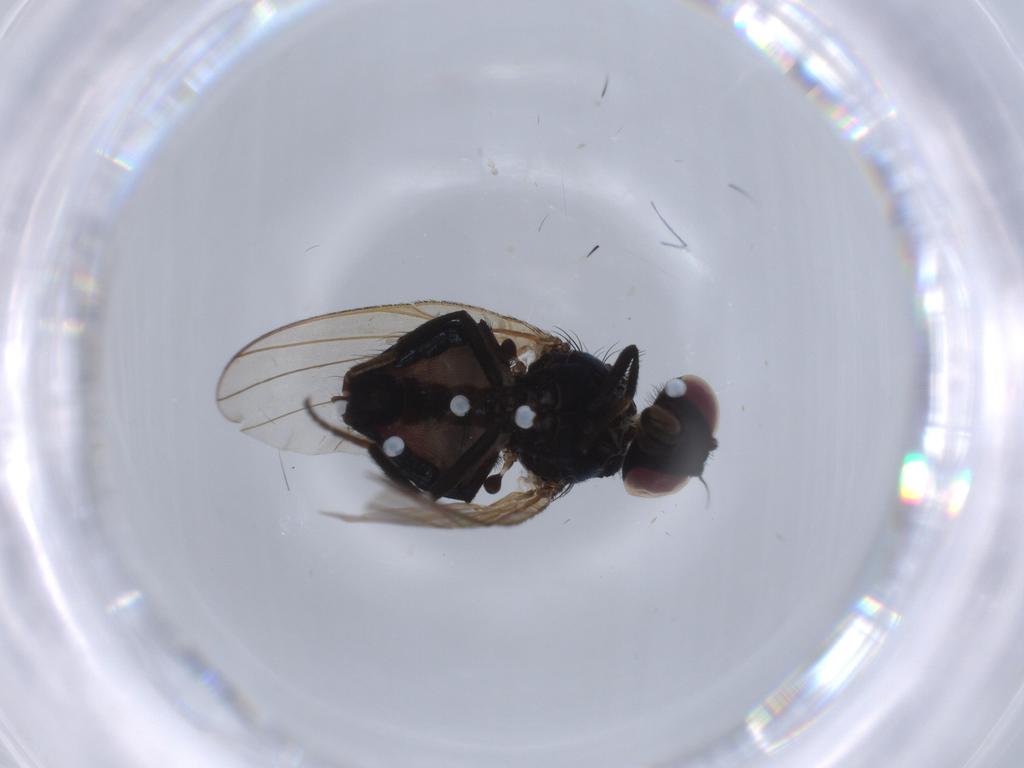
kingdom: Animalia
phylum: Arthropoda
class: Insecta
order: Diptera
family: Lonchaeidae
